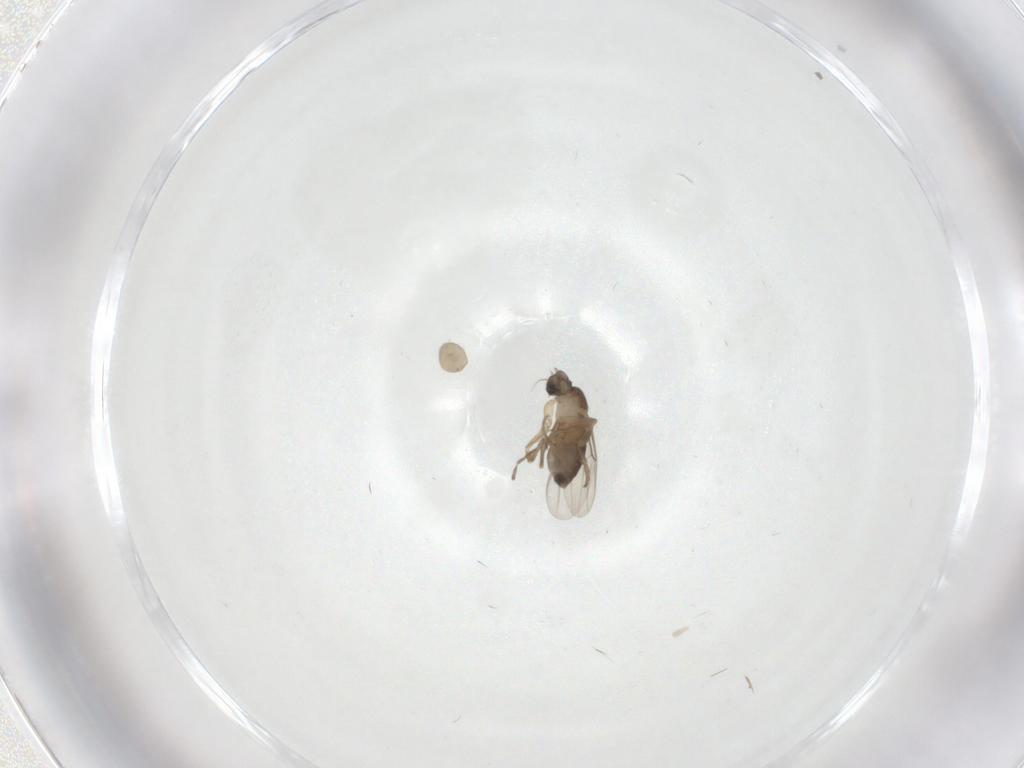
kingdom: Animalia
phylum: Arthropoda
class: Insecta
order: Diptera
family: Phoridae
